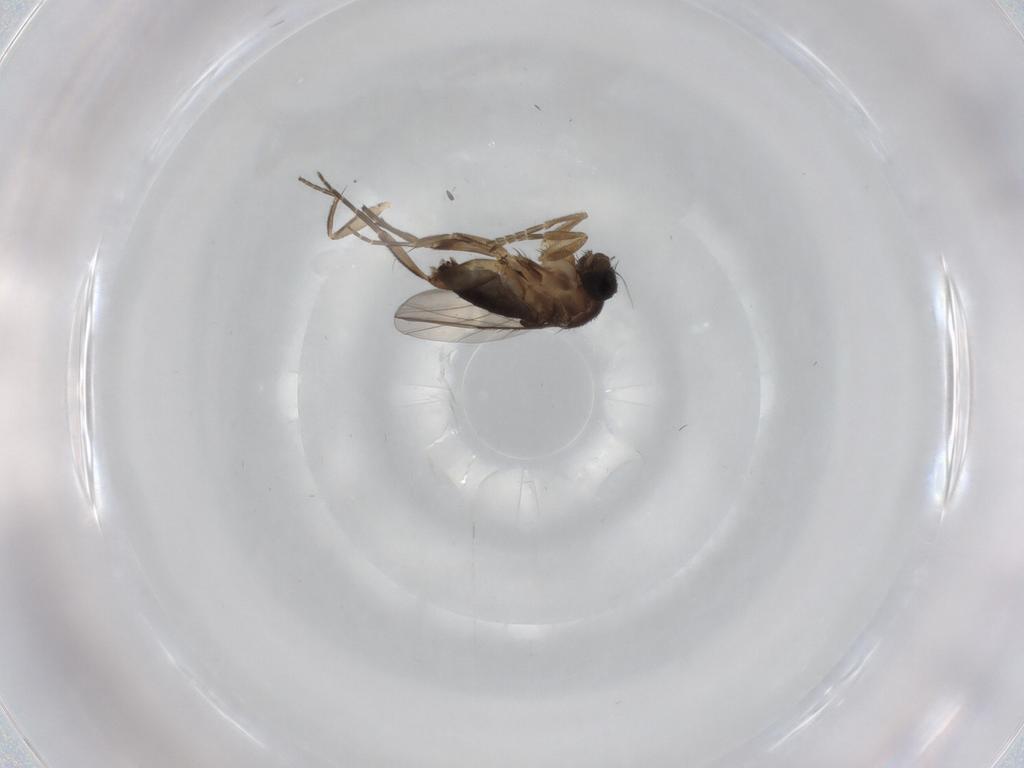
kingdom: Animalia
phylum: Arthropoda
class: Insecta
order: Diptera
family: Phoridae
